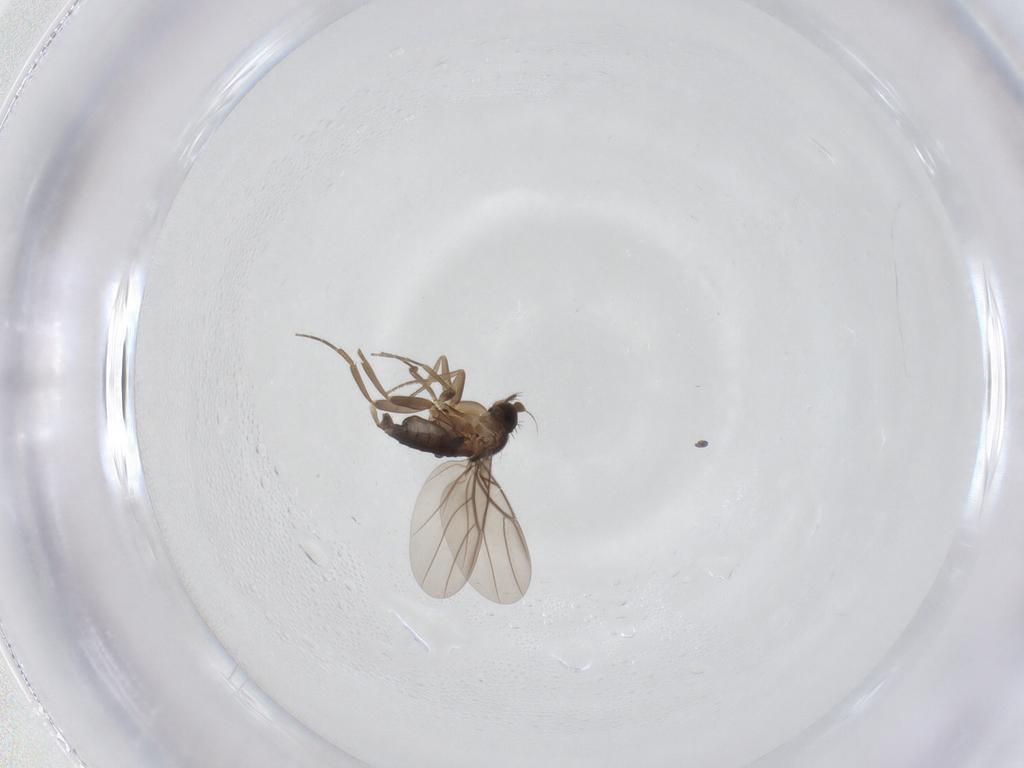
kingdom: Animalia
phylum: Arthropoda
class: Insecta
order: Diptera
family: Phoridae
